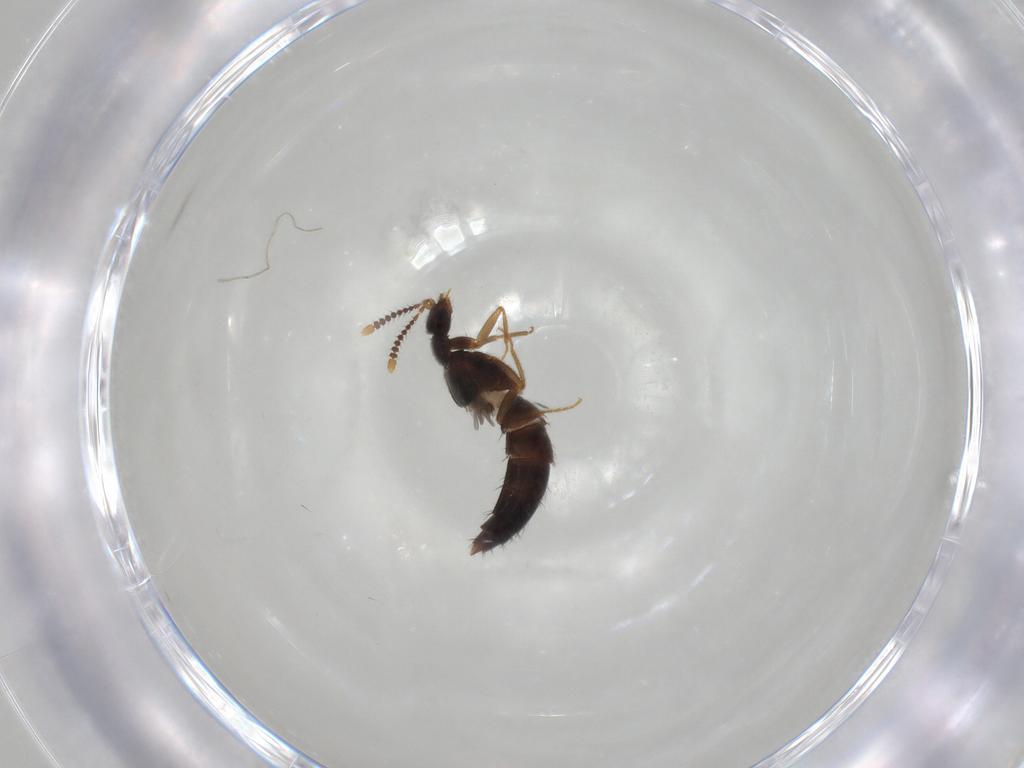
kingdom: Animalia
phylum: Arthropoda
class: Insecta
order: Coleoptera
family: Staphylinidae
